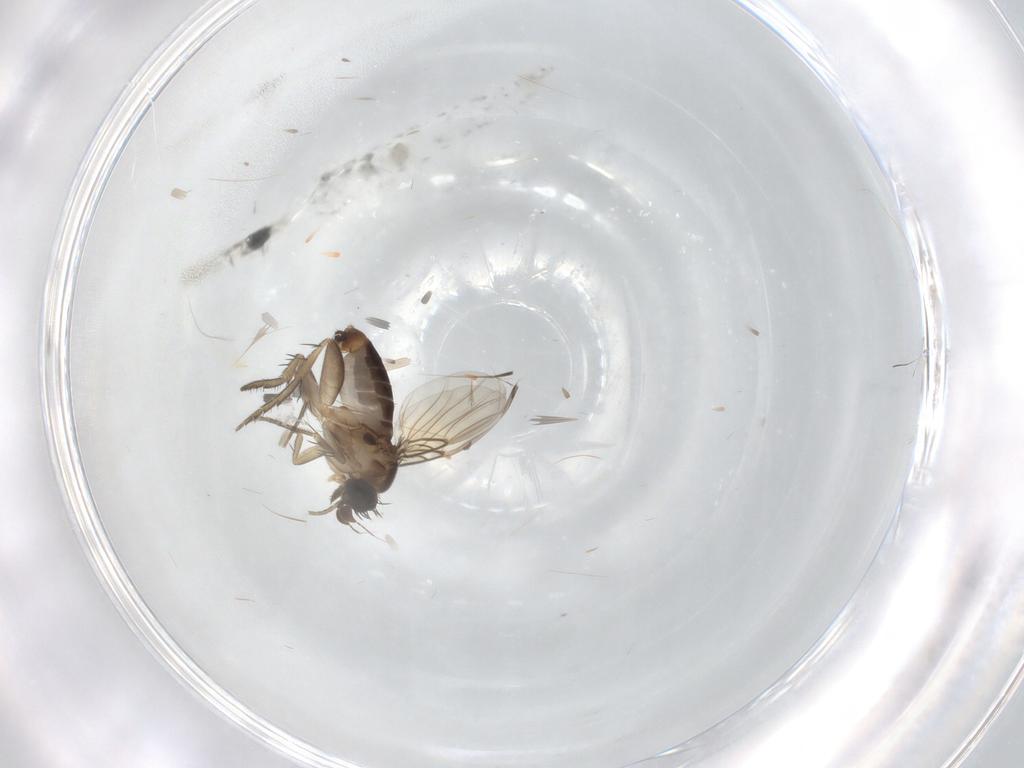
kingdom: Animalia
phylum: Arthropoda
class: Insecta
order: Diptera
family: Phoridae
